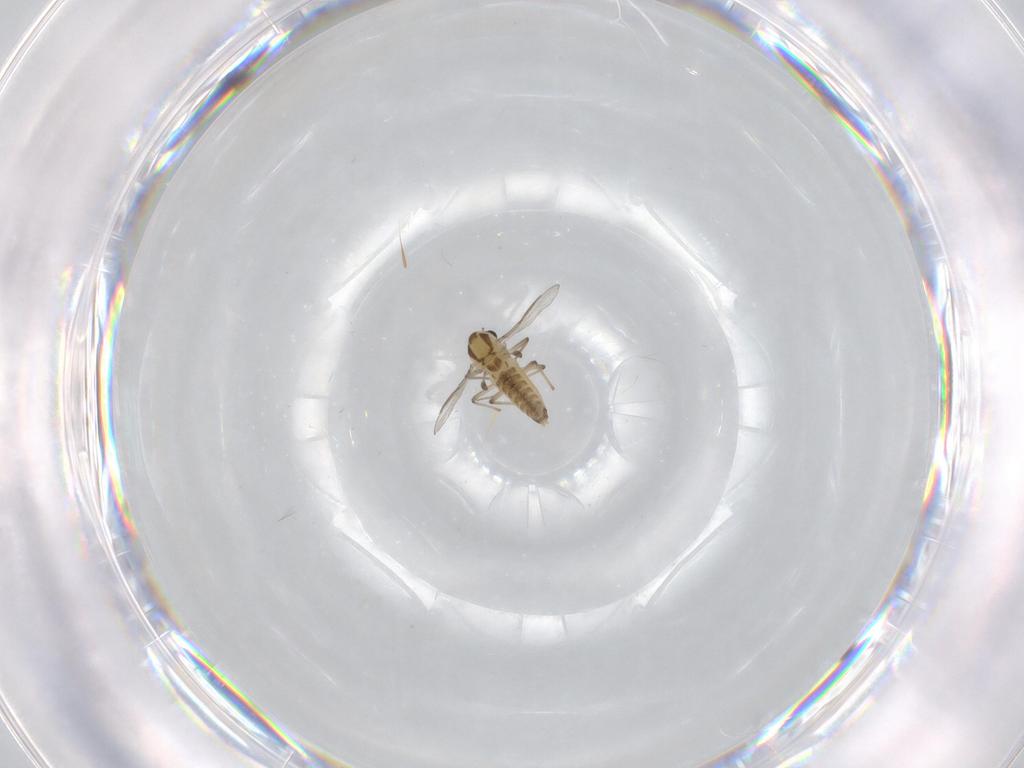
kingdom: Animalia
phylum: Arthropoda
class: Insecta
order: Diptera
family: Chironomidae
